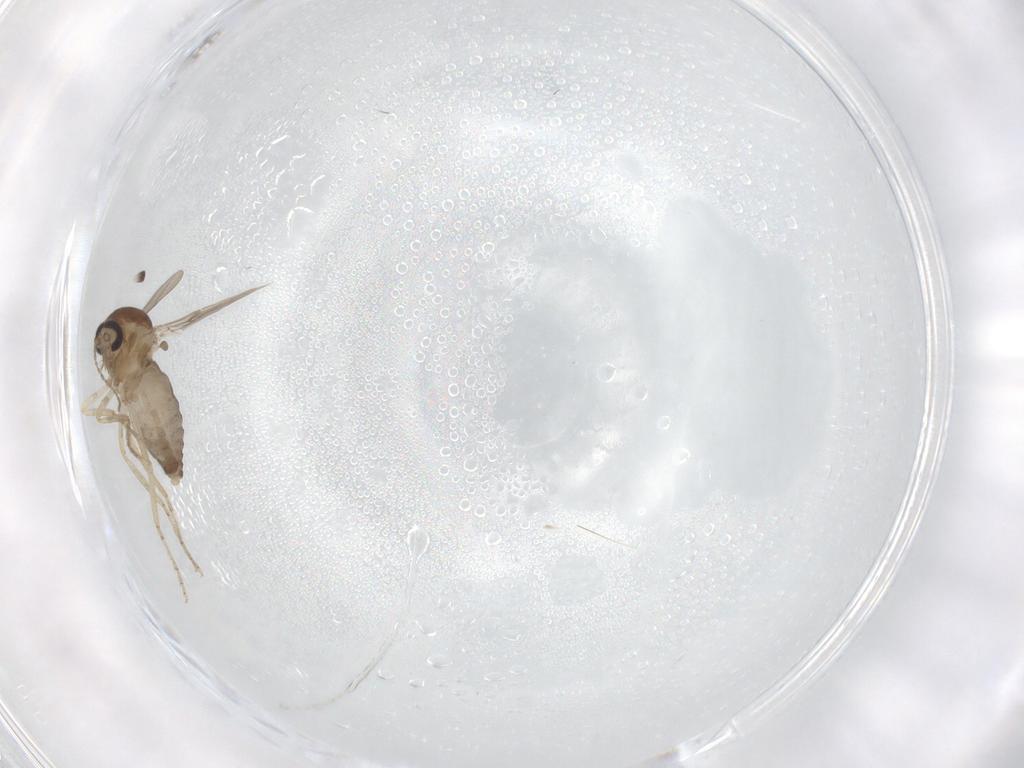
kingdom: Animalia
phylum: Arthropoda
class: Insecta
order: Diptera
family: Ceratopogonidae
